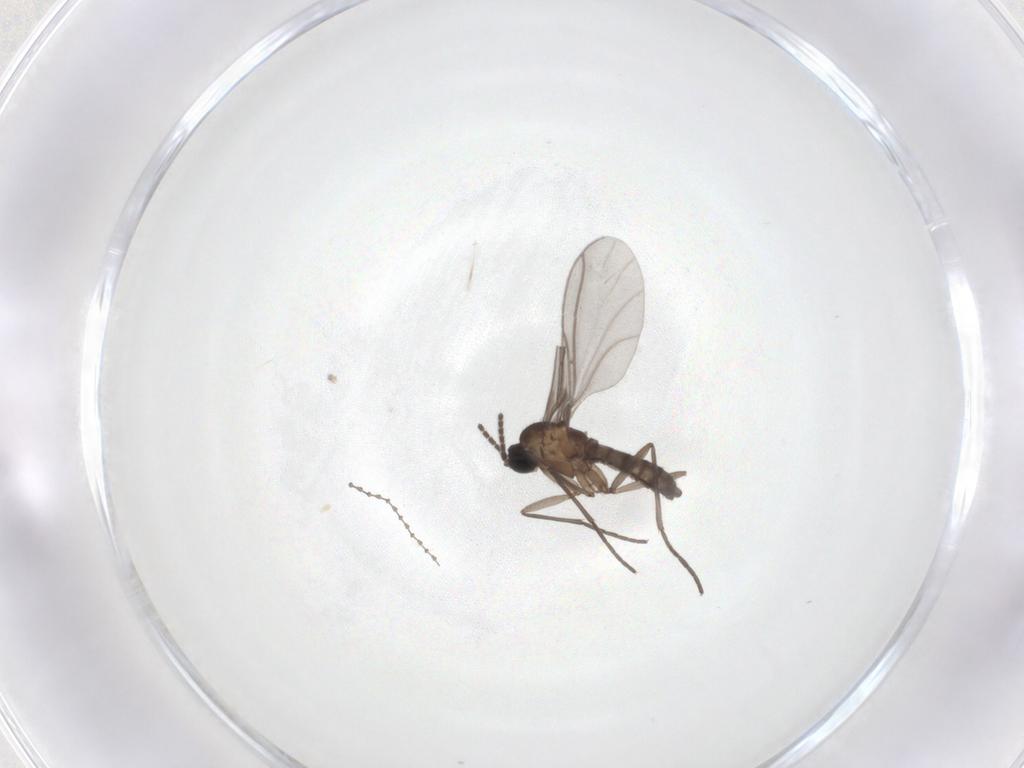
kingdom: Animalia
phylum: Arthropoda
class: Insecta
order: Diptera
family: Cecidomyiidae
